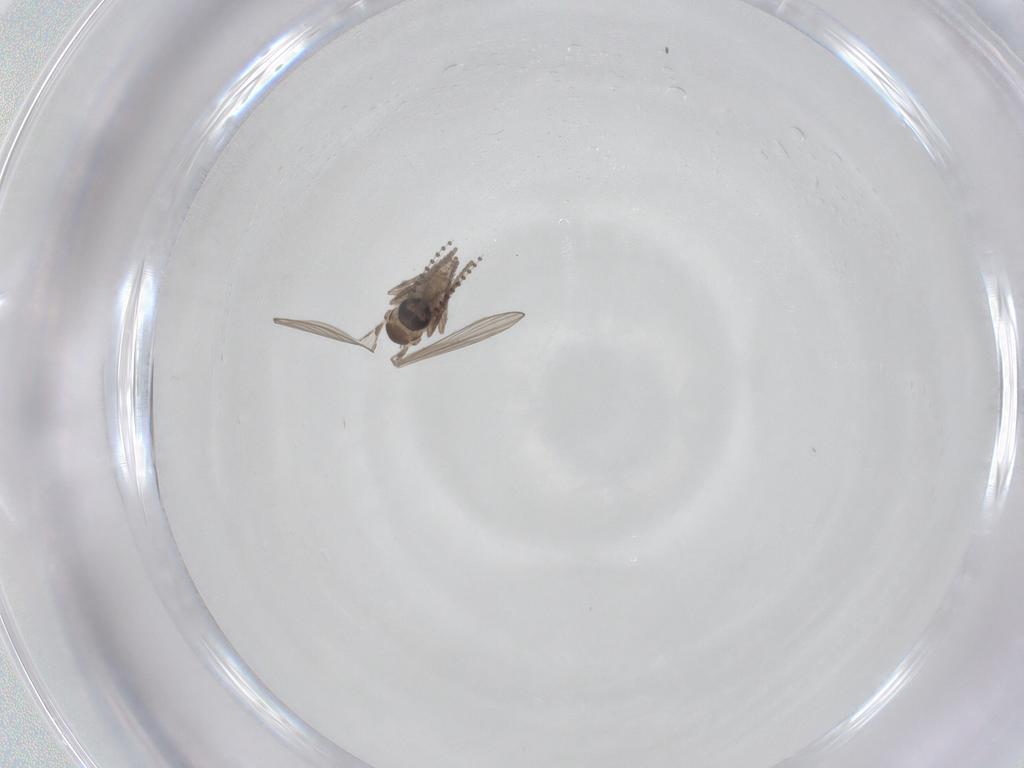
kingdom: Animalia
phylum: Arthropoda
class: Insecta
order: Diptera
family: Psychodidae
